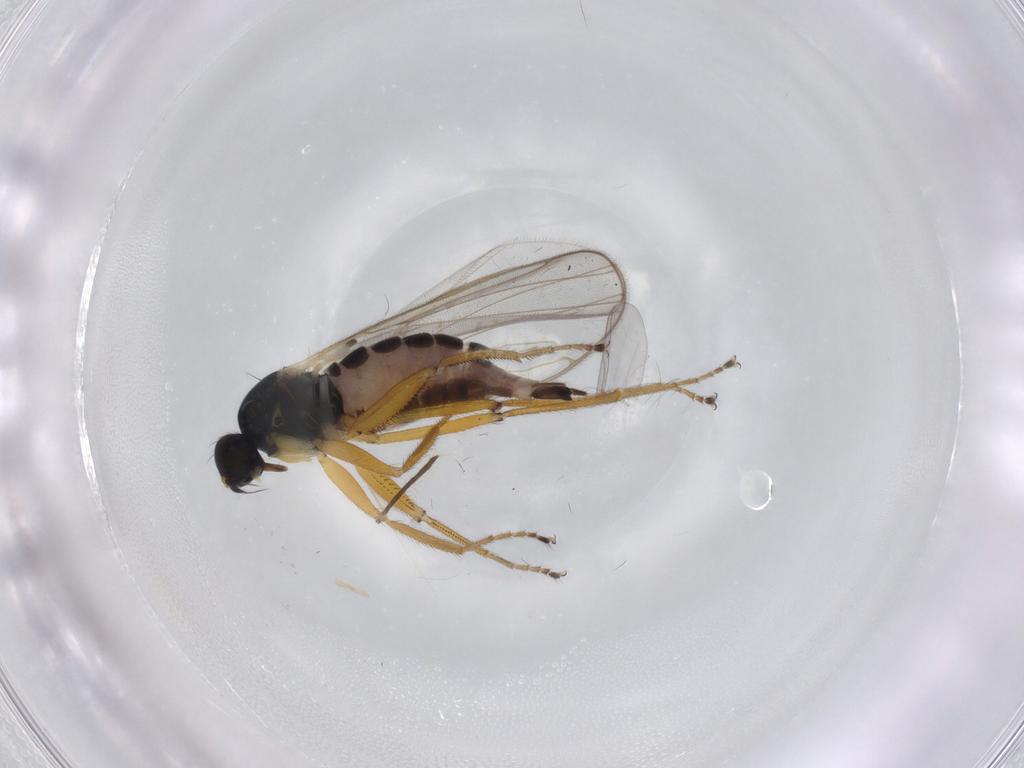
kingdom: Animalia
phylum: Arthropoda
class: Insecta
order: Diptera
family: Hybotidae
